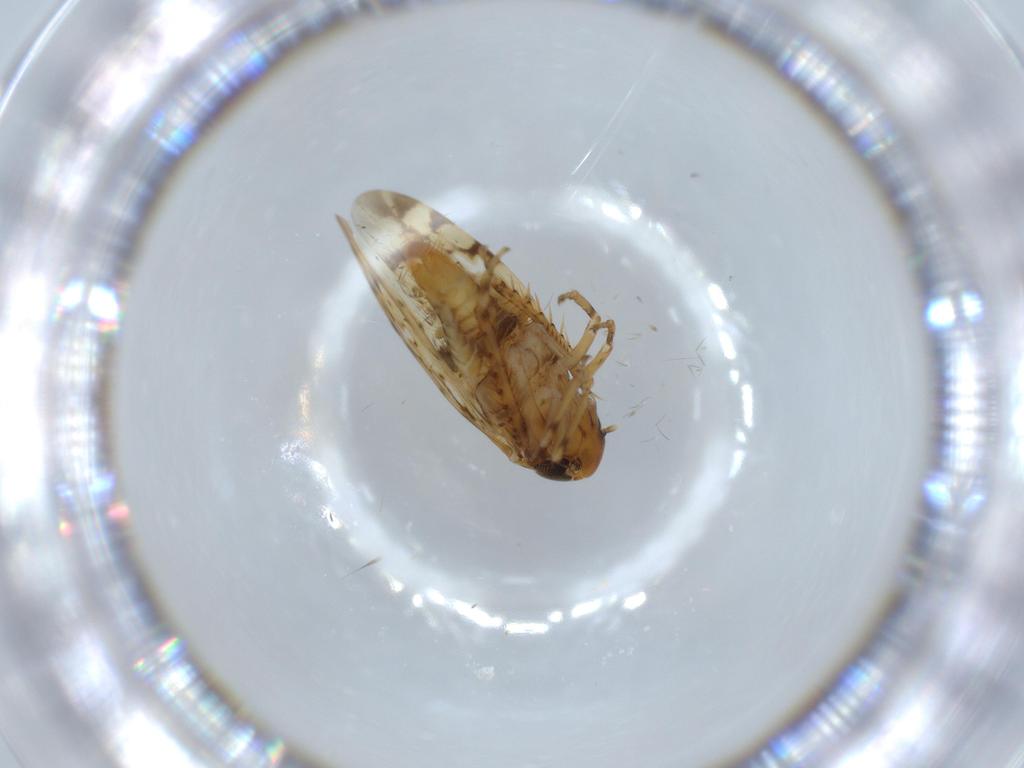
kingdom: Animalia
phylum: Arthropoda
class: Insecta
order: Hemiptera
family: Cicadellidae
